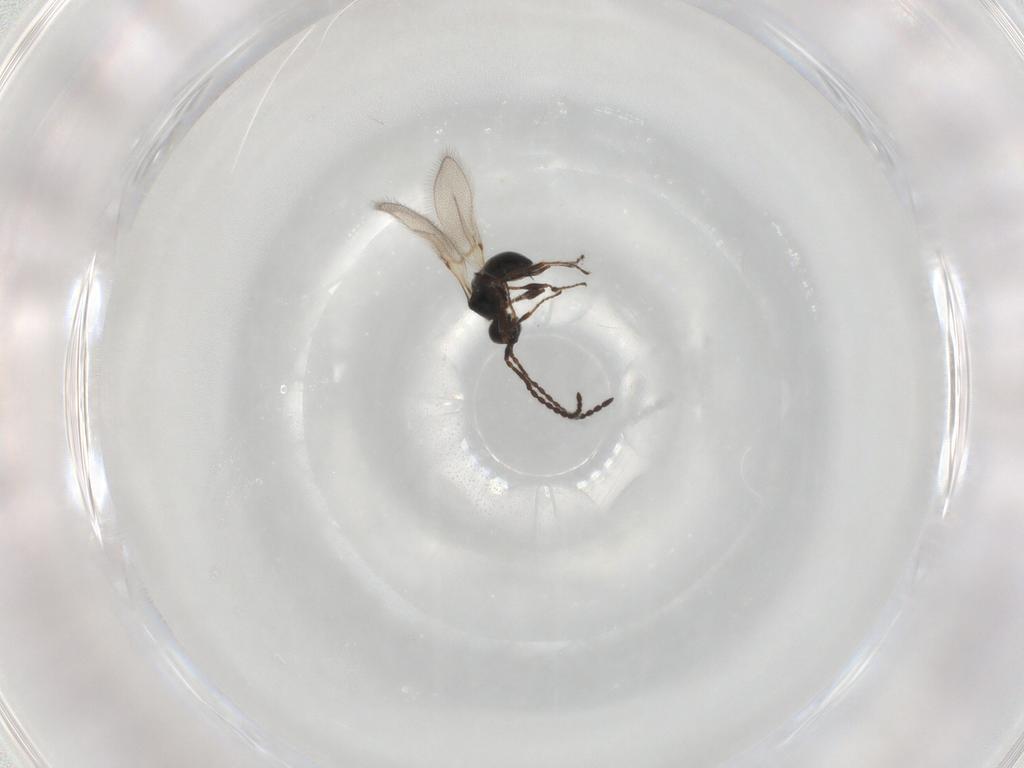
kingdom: Animalia
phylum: Arthropoda
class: Insecta
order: Hymenoptera
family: Diapriidae
